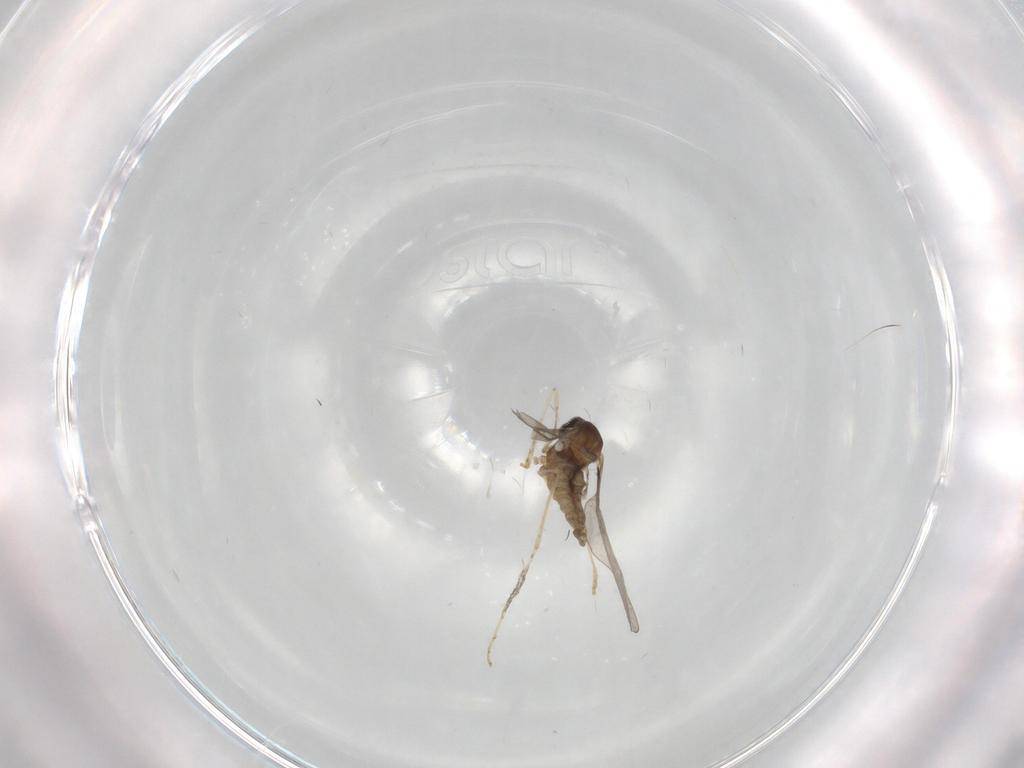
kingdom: Animalia
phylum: Arthropoda
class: Insecta
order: Diptera
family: Cecidomyiidae
